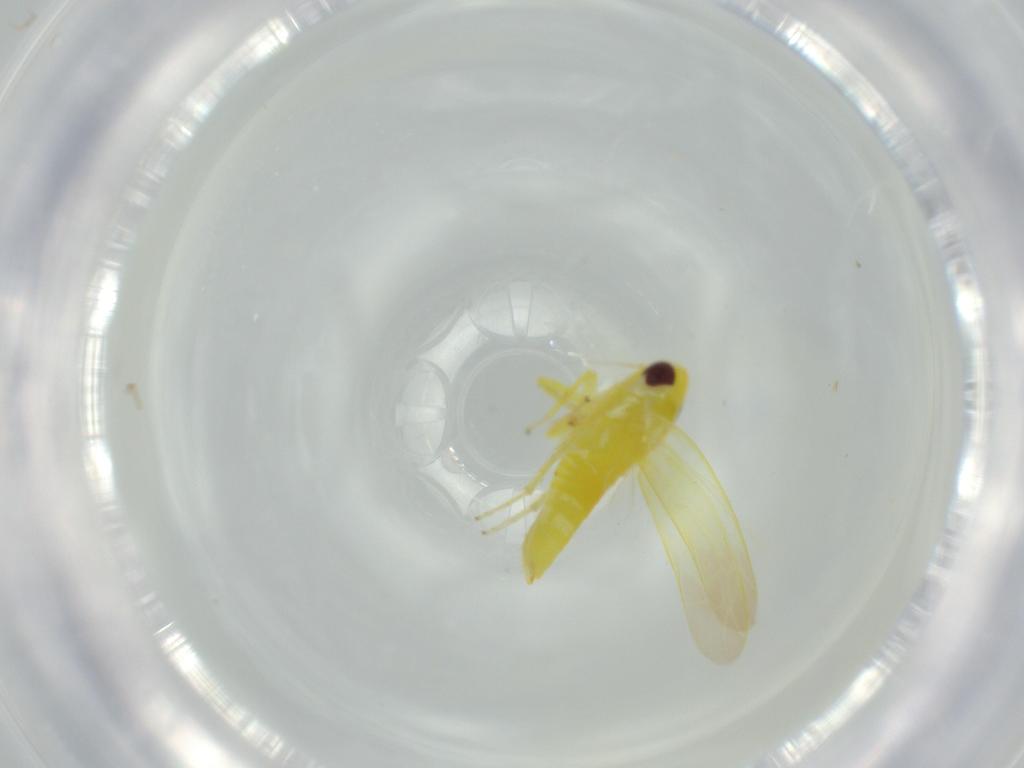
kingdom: Animalia
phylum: Arthropoda
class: Insecta
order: Hemiptera
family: Cicadellidae
